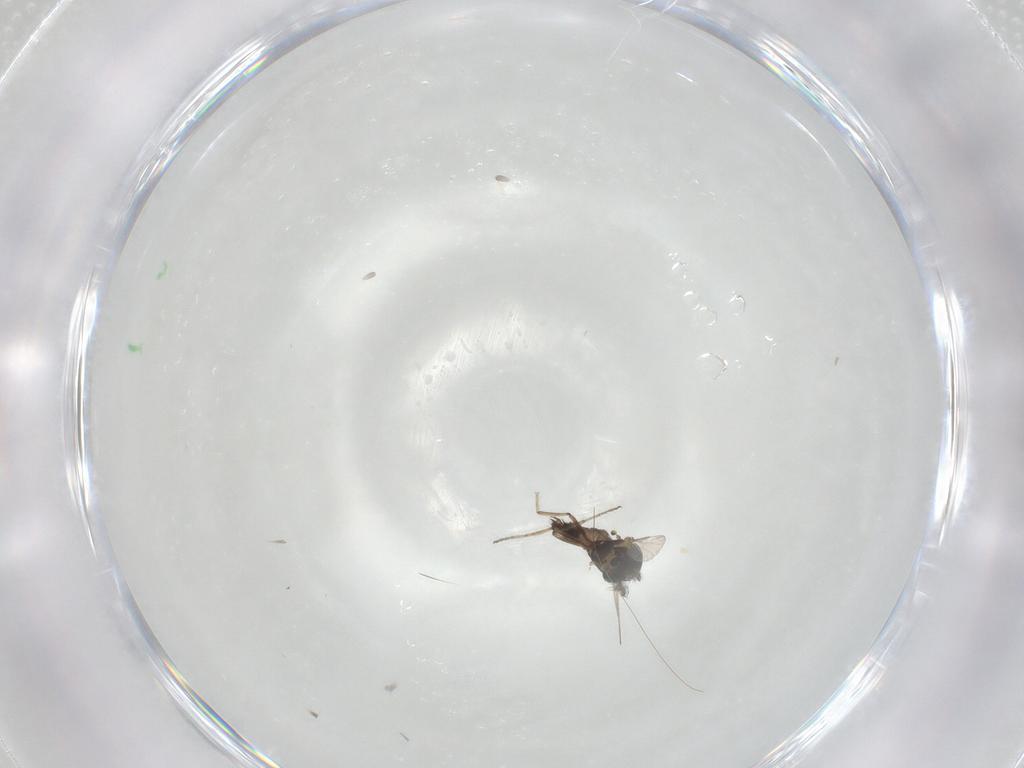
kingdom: Animalia
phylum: Arthropoda
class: Insecta
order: Diptera
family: Ceratopogonidae
